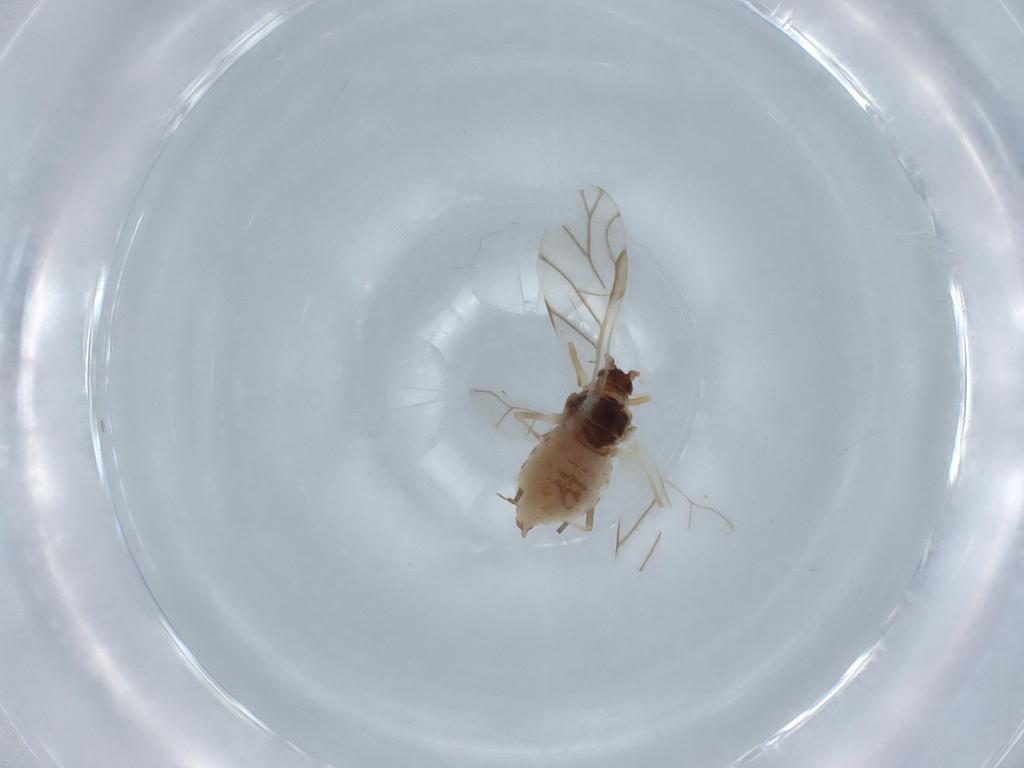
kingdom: Animalia
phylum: Arthropoda
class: Insecta
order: Hemiptera
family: Aphididae
